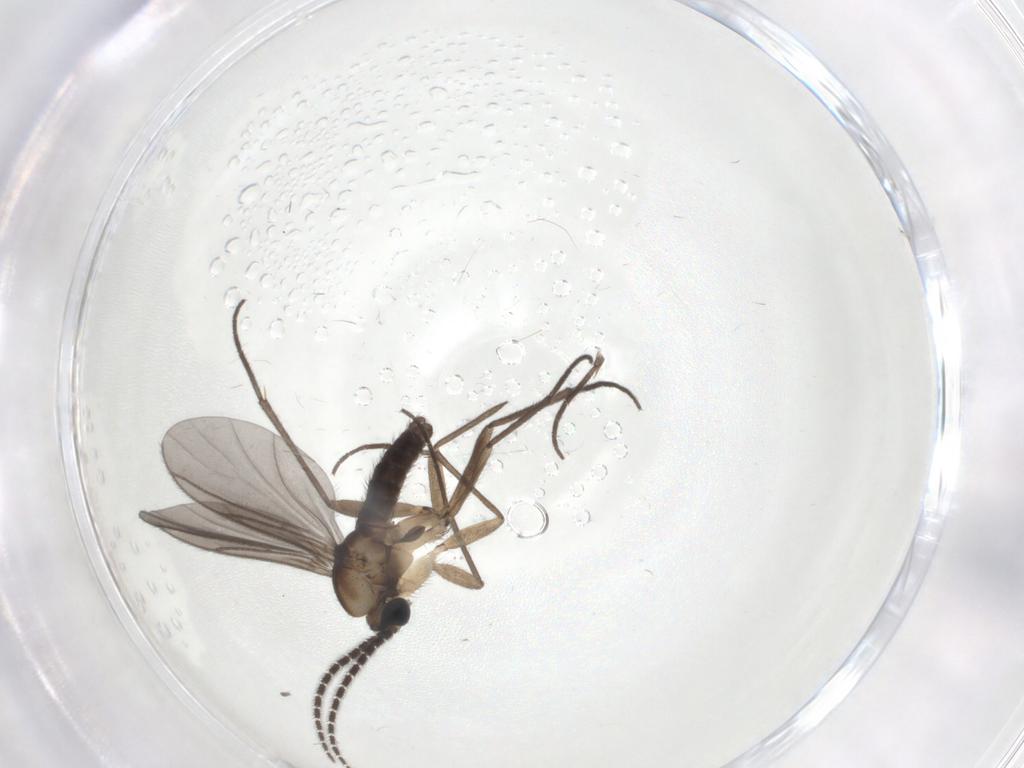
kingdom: Animalia
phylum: Arthropoda
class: Insecta
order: Diptera
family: Sciaridae
